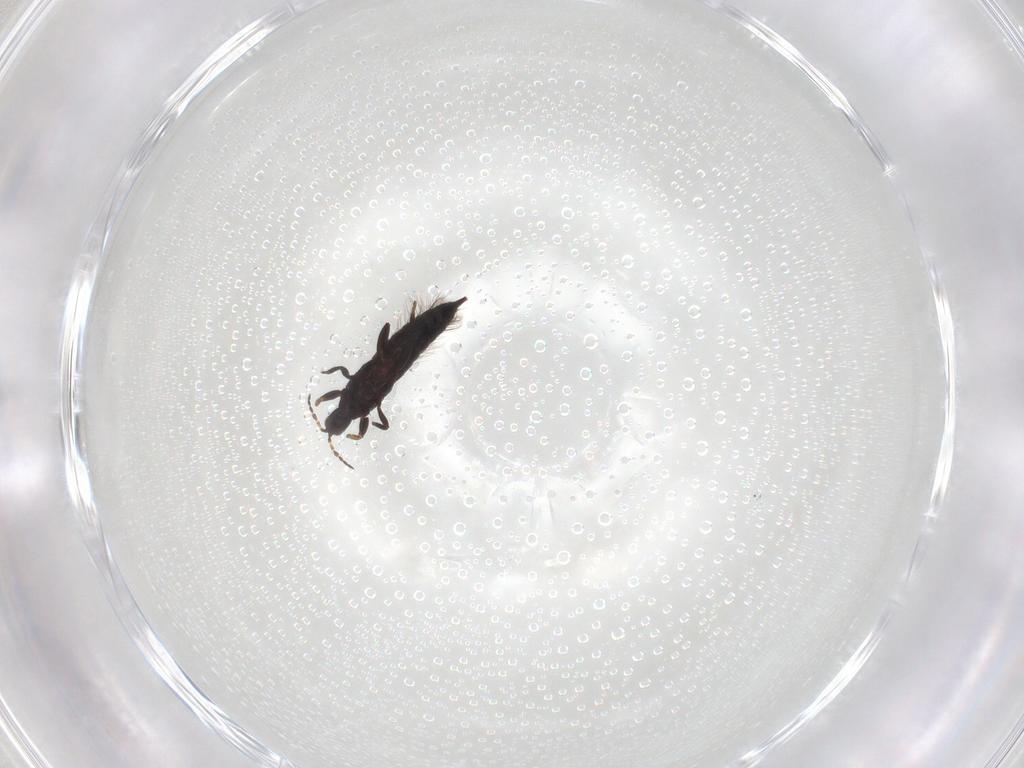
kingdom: Animalia
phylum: Arthropoda
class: Insecta
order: Thysanoptera
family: Phlaeothripidae
